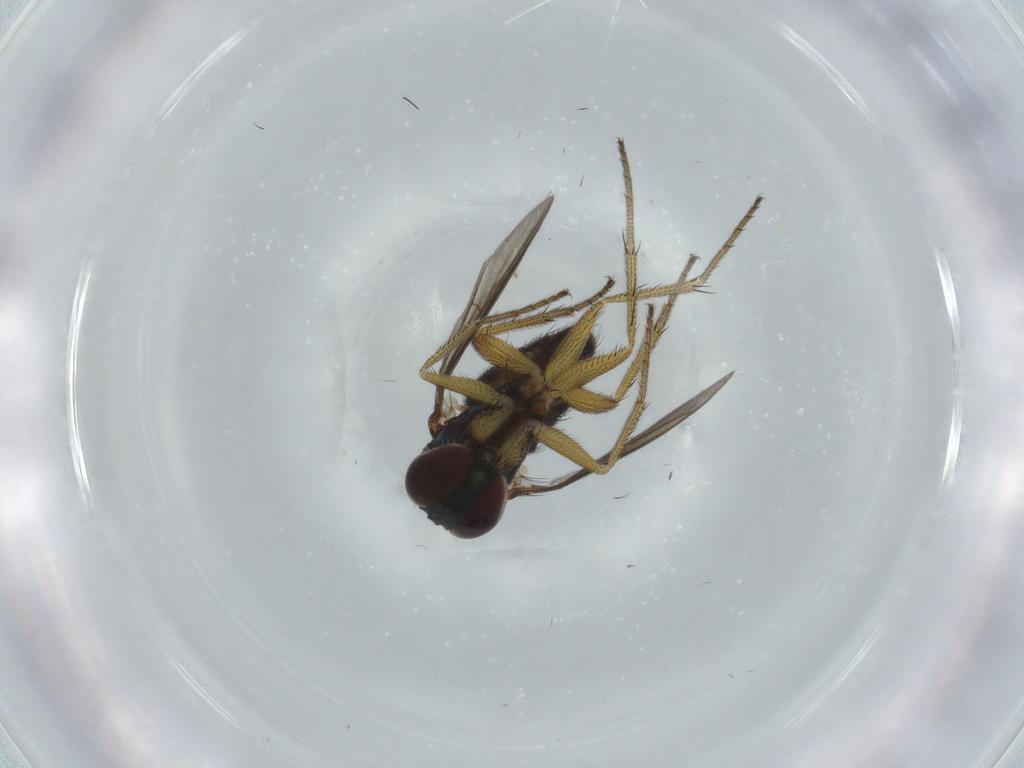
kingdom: Animalia
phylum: Arthropoda
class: Insecta
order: Diptera
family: Dolichopodidae
